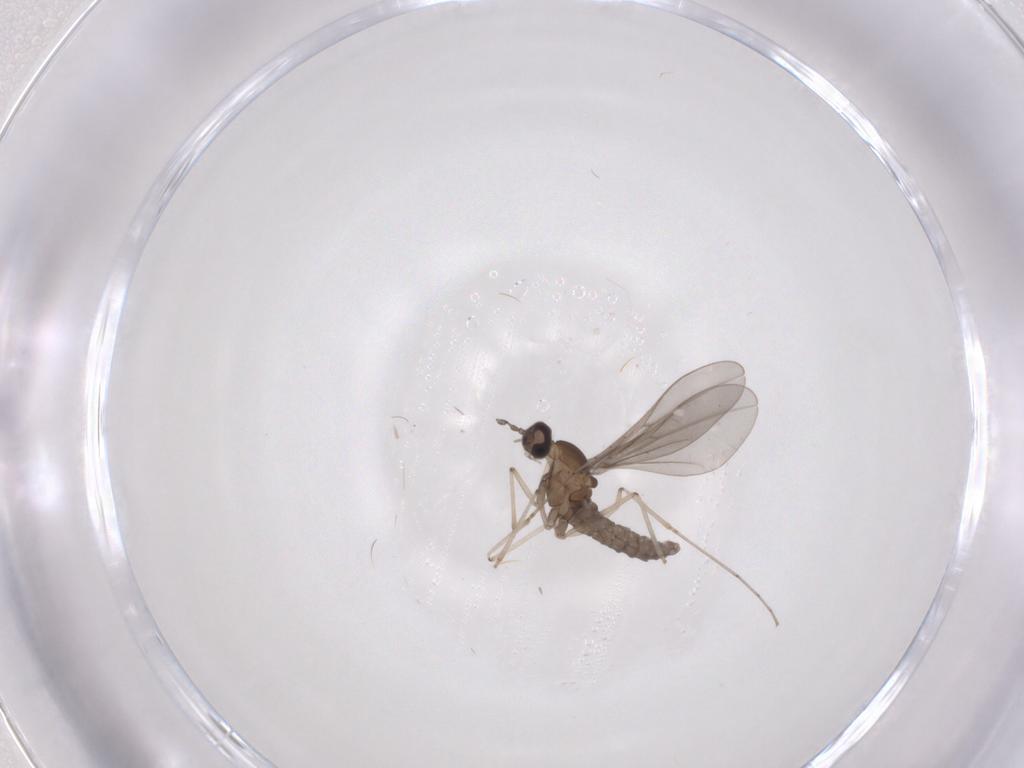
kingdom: Animalia
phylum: Arthropoda
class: Insecta
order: Diptera
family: Cecidomyiidae
